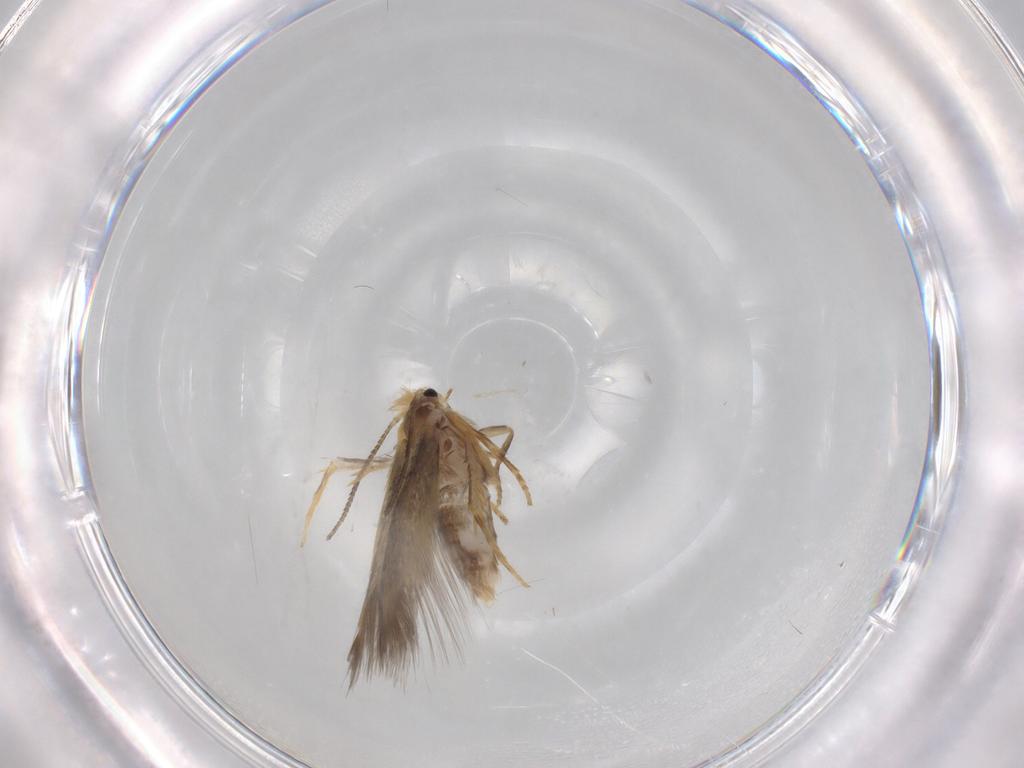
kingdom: Animalia
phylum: Arthropoda
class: Insecta
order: Lepidoptera
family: Nepticulidae
